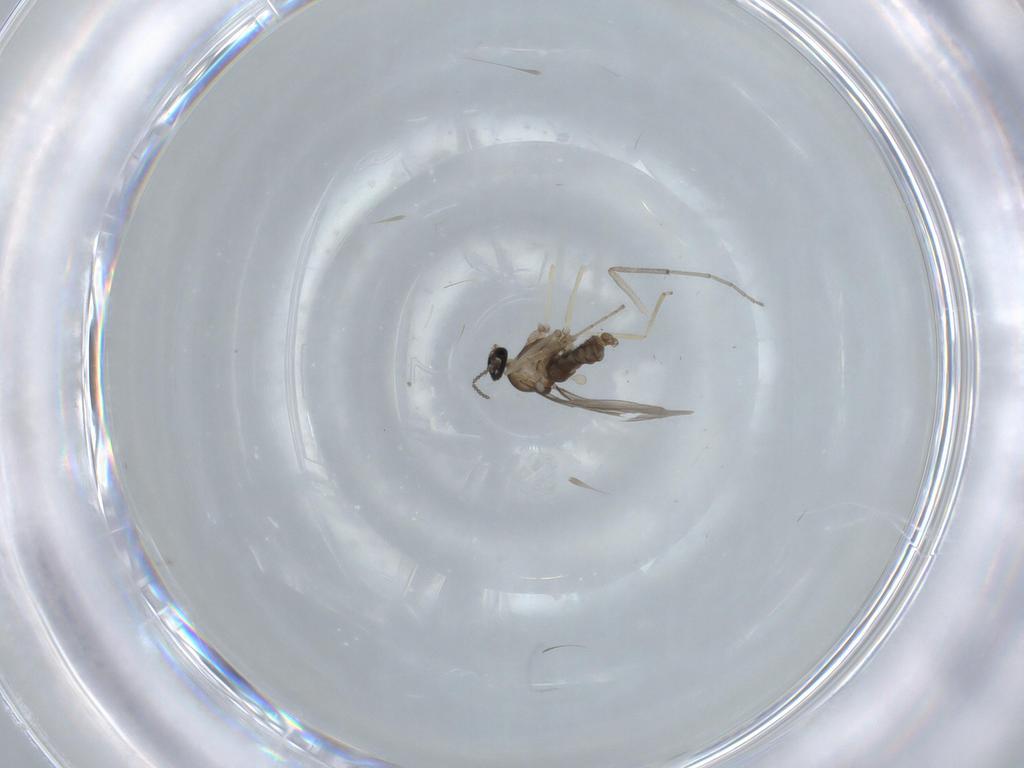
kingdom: Animalia
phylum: Arthropoda
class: Insecta
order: Diptera
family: Cecidomyiidae
